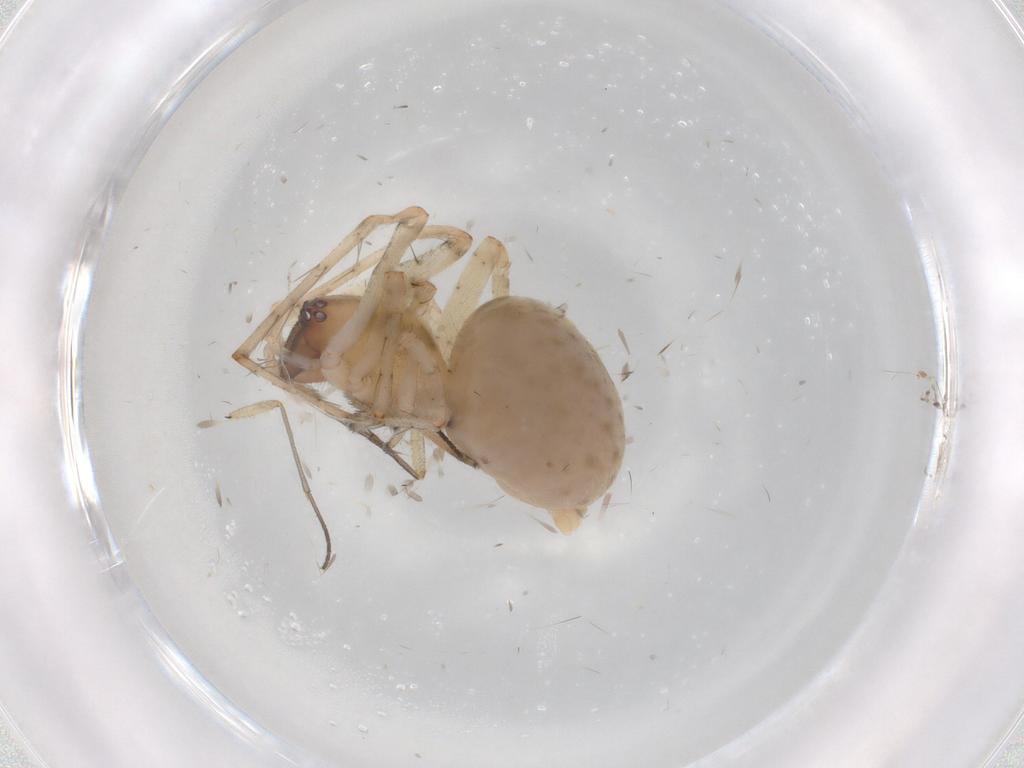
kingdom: Animalia
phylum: Arthropoda
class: Arachnida
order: Araneae
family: Anyphaenidae
